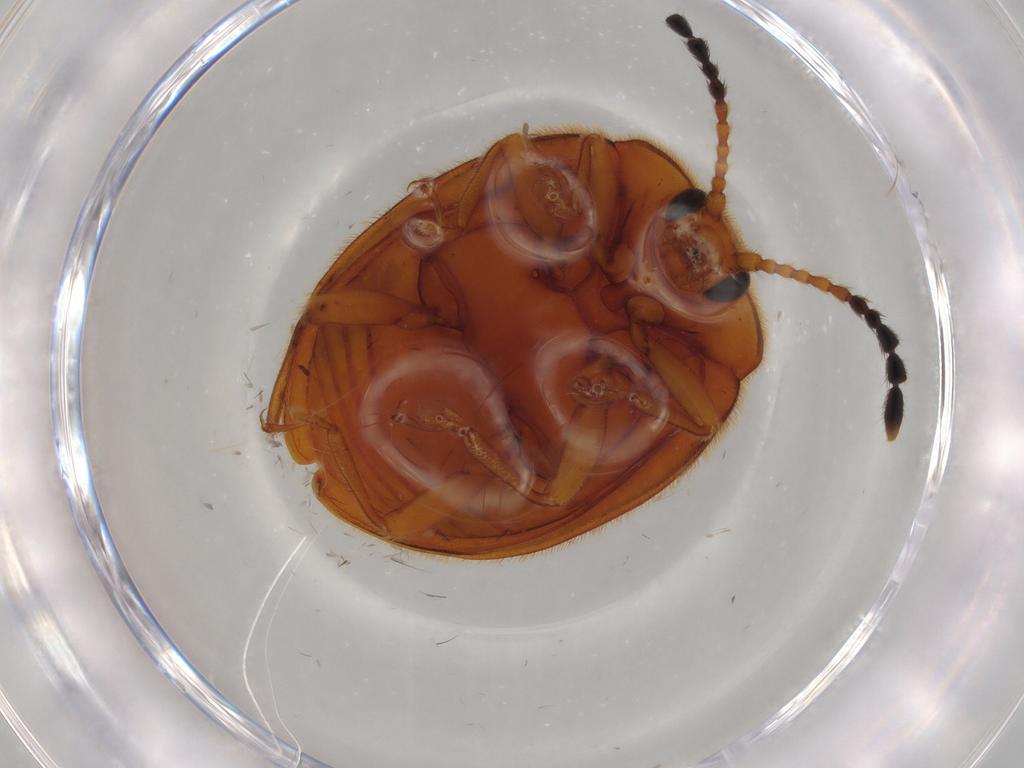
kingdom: Animalia
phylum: Arthropoda
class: Insecta
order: Coleoptera
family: Endomychidae
